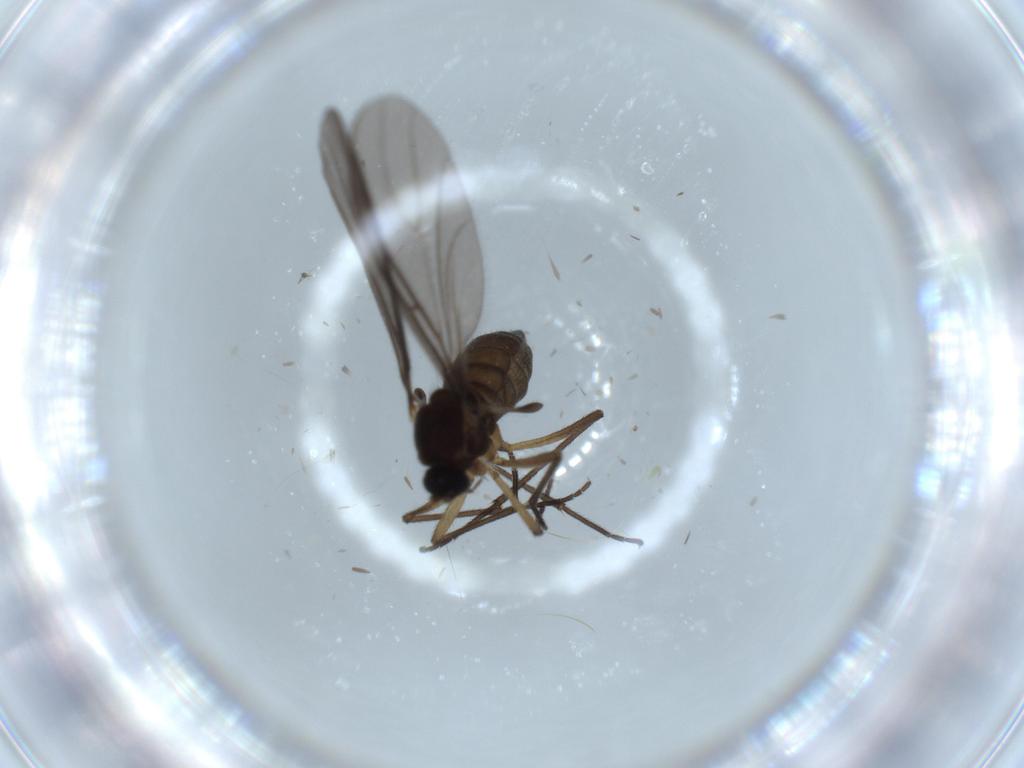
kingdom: Animalia
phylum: Arthropoda
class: Insecta
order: Diptera
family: Sciaridae
